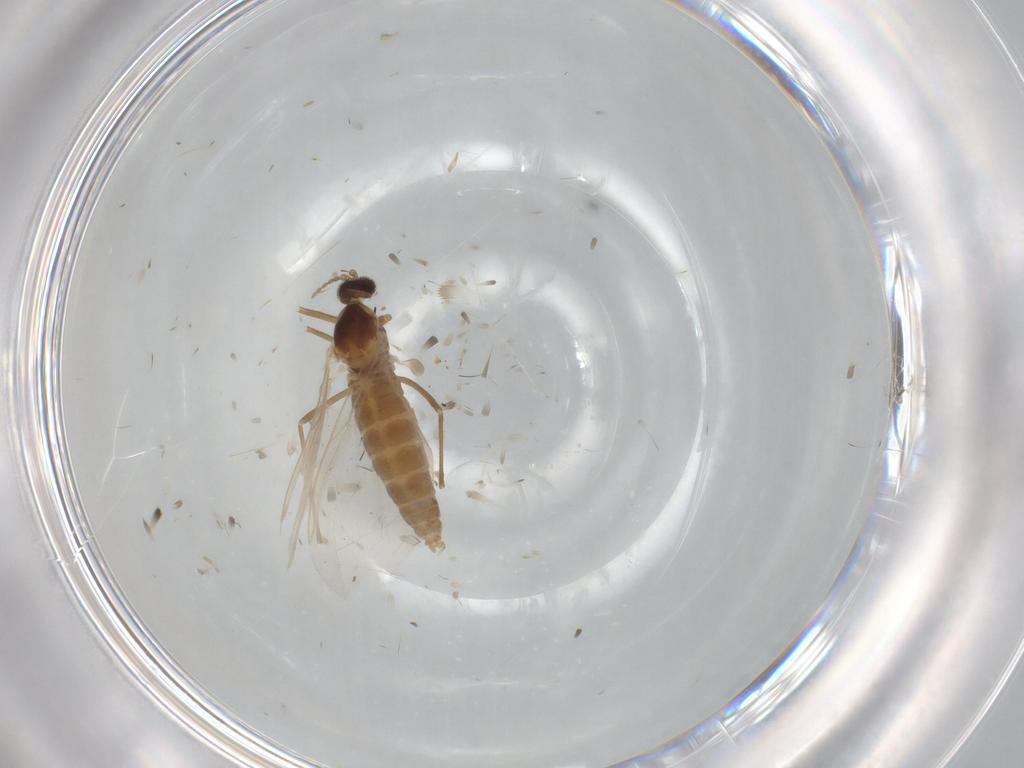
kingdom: Animalia
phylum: Arthropoda
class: Insecta
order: Diptera
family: Cecidomyiidae
